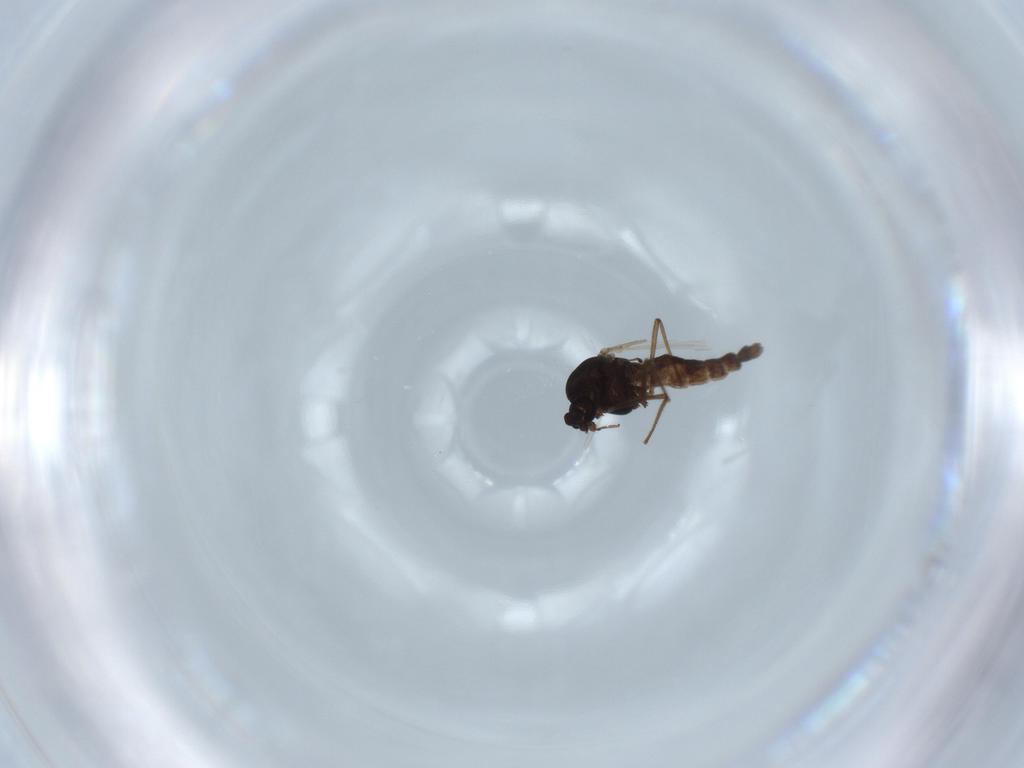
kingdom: Animalia
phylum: Arthropoda
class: Insecta
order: Diptera
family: Chironomidae
